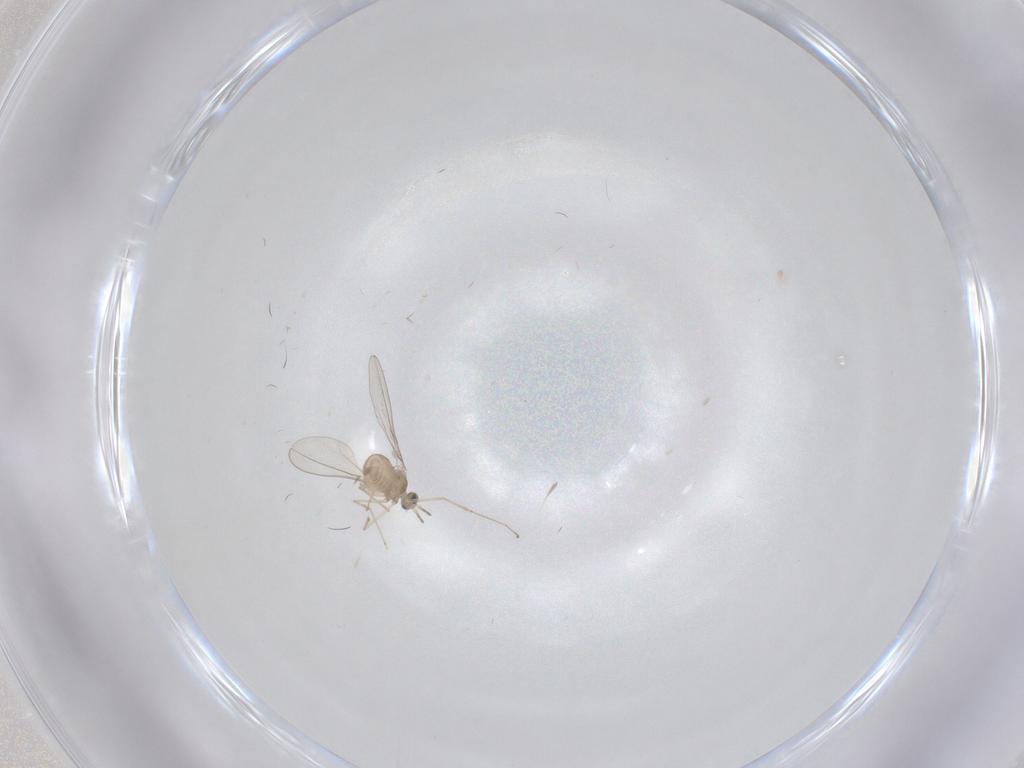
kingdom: Animalia
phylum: Arthropoda
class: Insecta
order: Diptera
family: Cecidomyiidae
